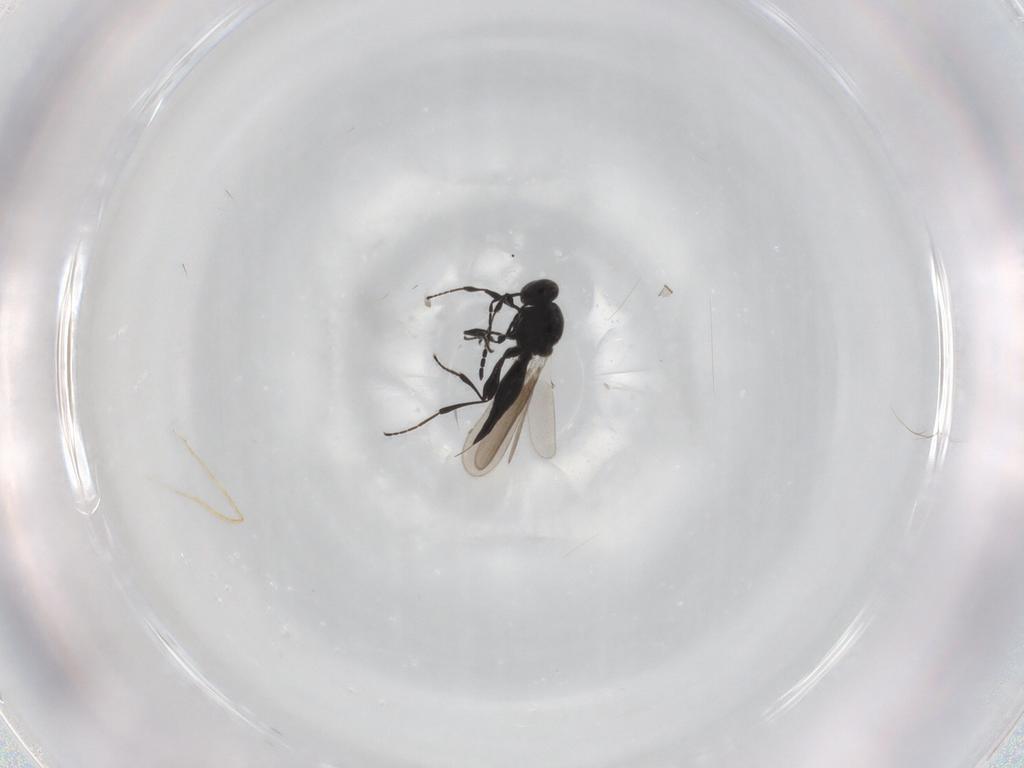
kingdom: Animalia
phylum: Arthropoda
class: Insecta
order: Hymenoptera
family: Platygastridae
